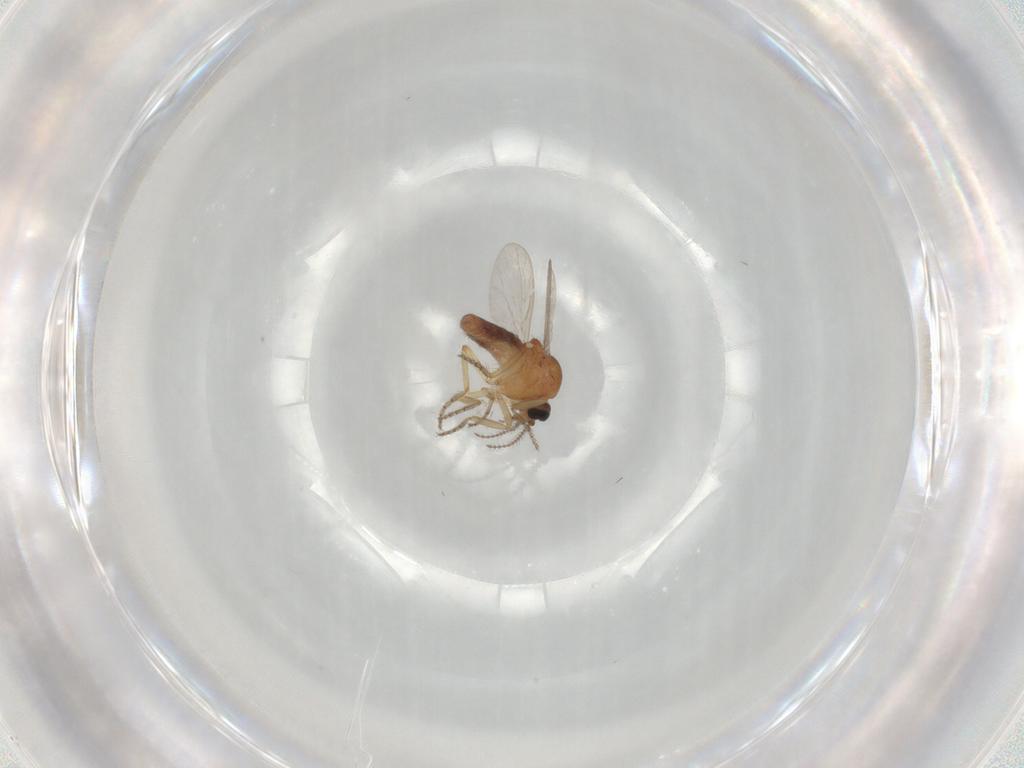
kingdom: Animalia
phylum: Arthropoda
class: Insecta
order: Diptera
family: Ceratopogonidae
